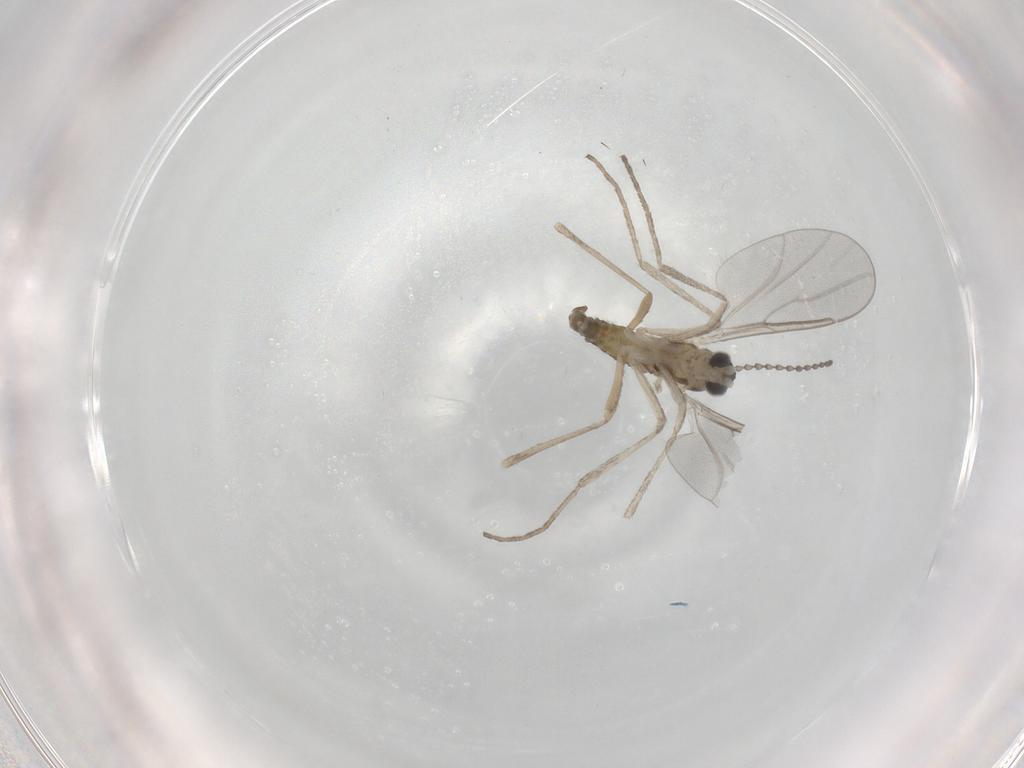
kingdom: Animalia
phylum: Arthropoda
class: Insecta
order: Diptera
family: Cecidomyiidae
